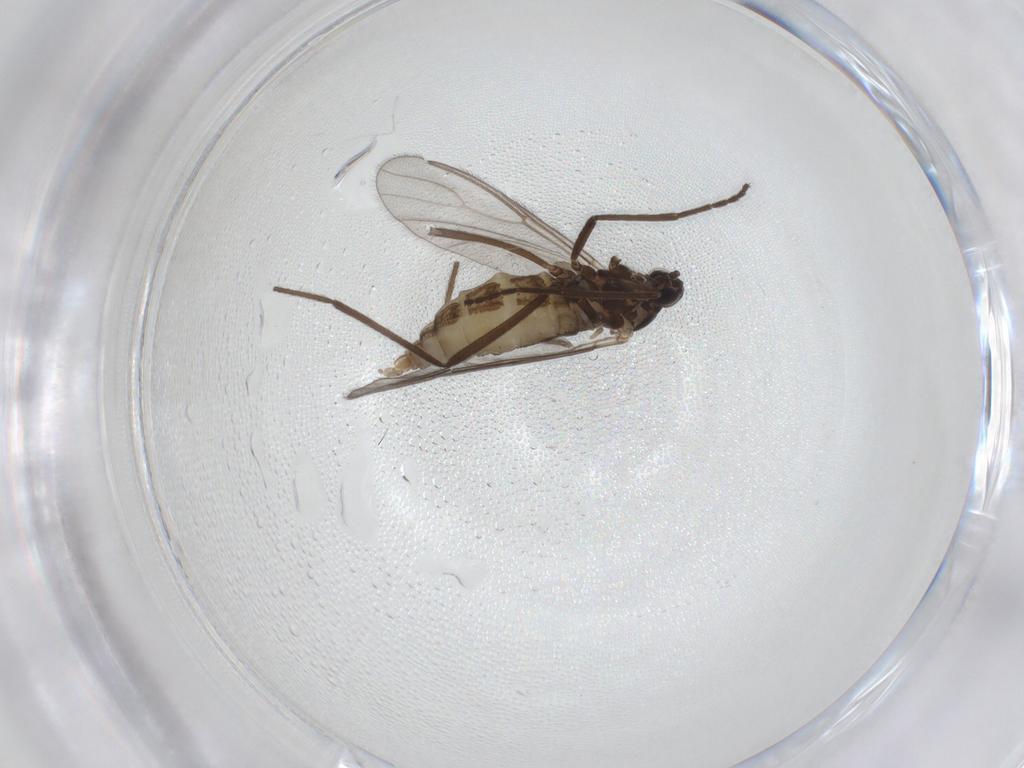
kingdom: Animalia
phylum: Arthropoda
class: Insecta
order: Diptera
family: Cecidomyiidae
